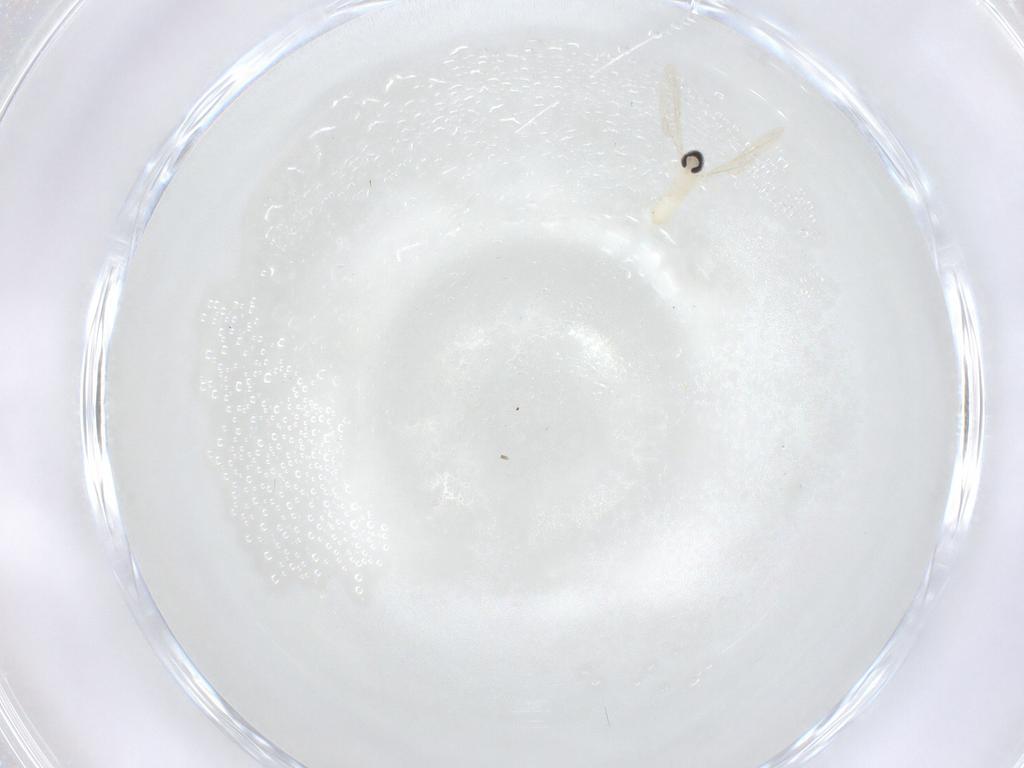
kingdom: Animalia
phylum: Arthropoda
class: Insecta
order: Diptera
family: Cecidomyiidae
